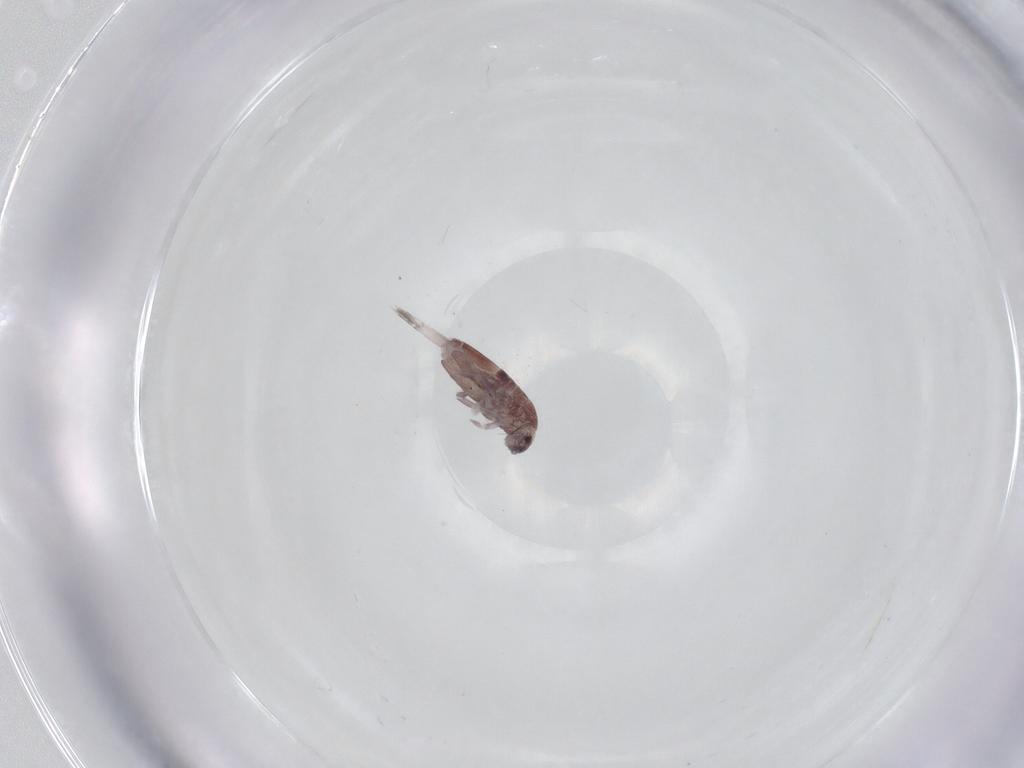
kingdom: Animalia
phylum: Arthropoda
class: Collembola
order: Entomobryomorpha
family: Entomobryidae
